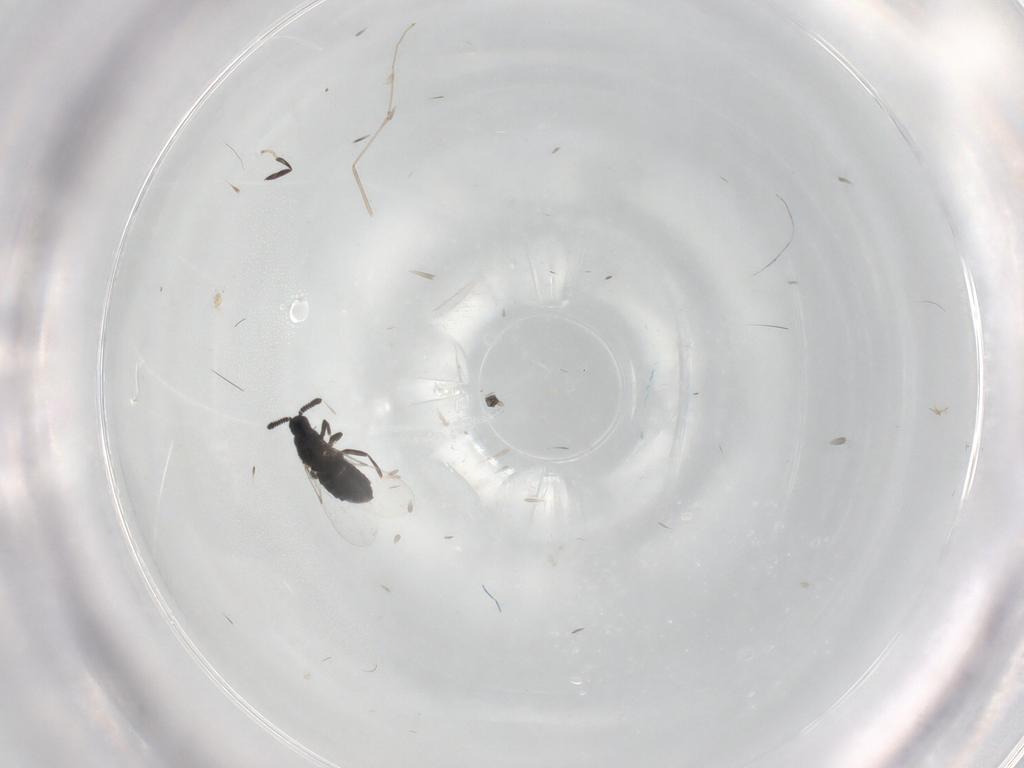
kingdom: Animalia
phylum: Arthropoda
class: Insecta
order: Diptera
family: Scatopsidae
